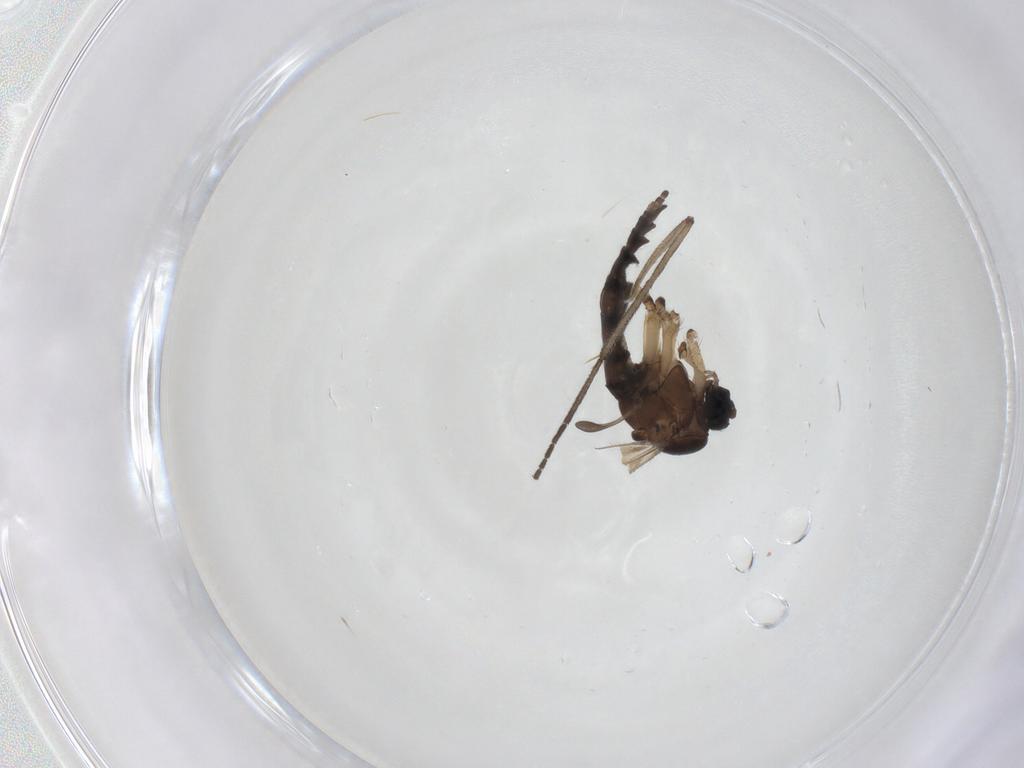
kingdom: Animalia
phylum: Arthropoda
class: Insecta
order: Diptera
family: Sciaridae
